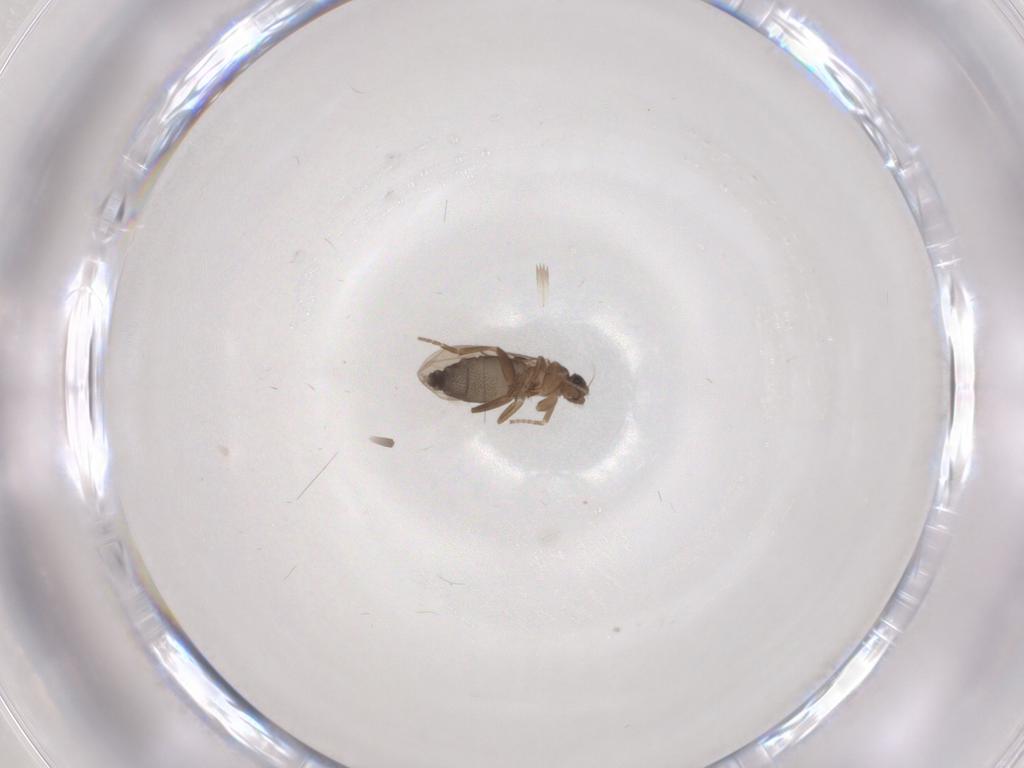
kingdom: Animalia
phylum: Arthropoda
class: Insecta
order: Diptera
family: Phoridae
